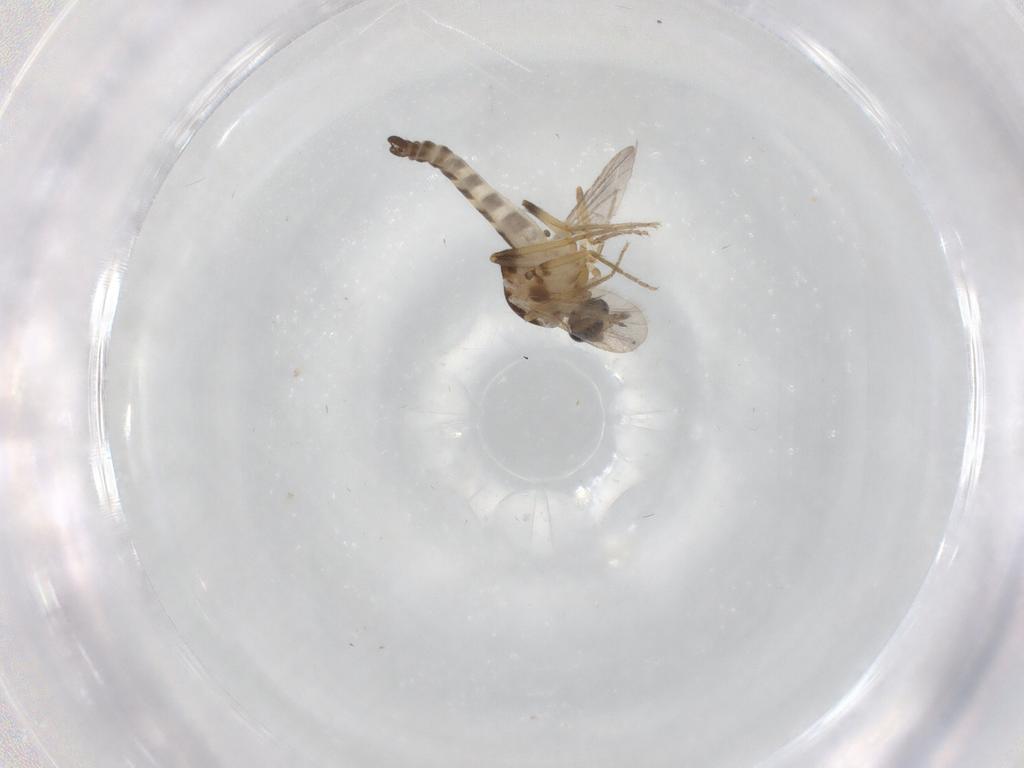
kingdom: Animalia
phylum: Arthropoda
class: Insecta
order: Diptera
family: Ceratopogonidae
